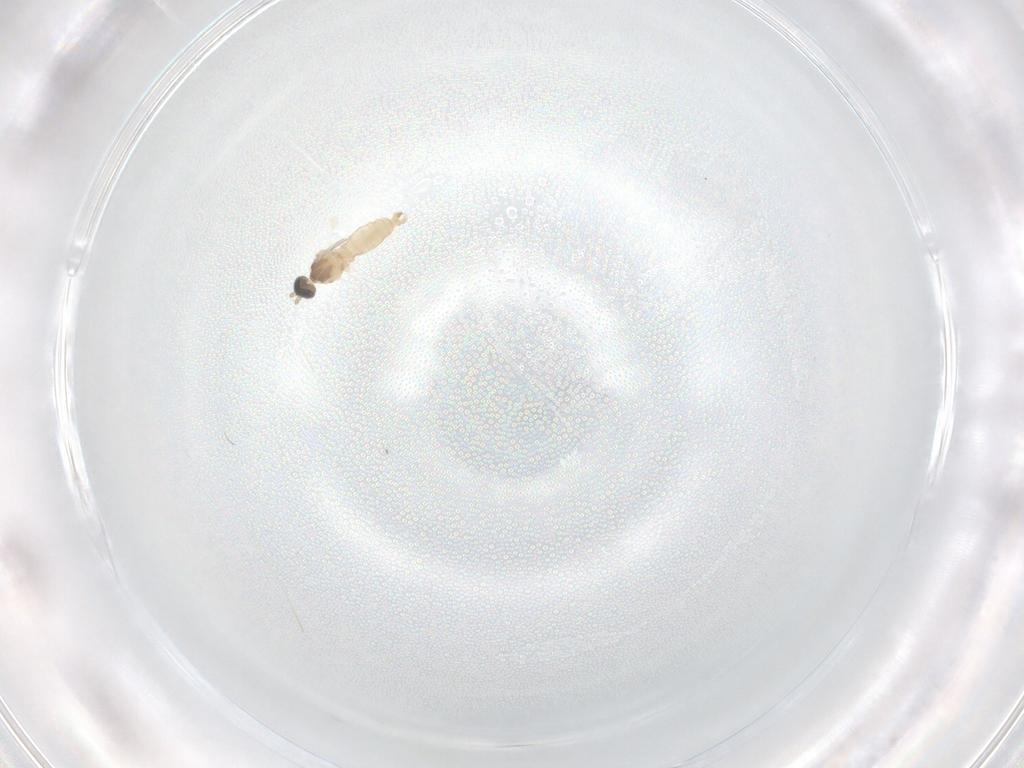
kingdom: Animalia
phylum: Arthropoda
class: Insecta
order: Diptera
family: Cecidomyiidae
